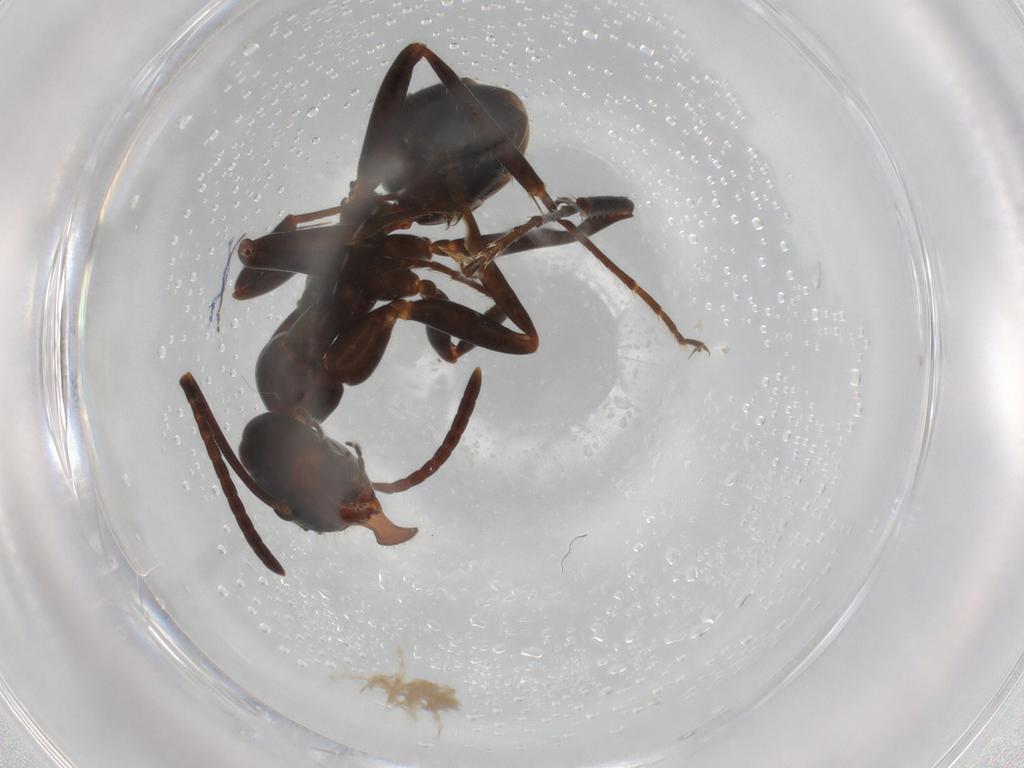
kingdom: Animalia
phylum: Arthropoda
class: Insecta
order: Hymenoptera
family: Formicidae
